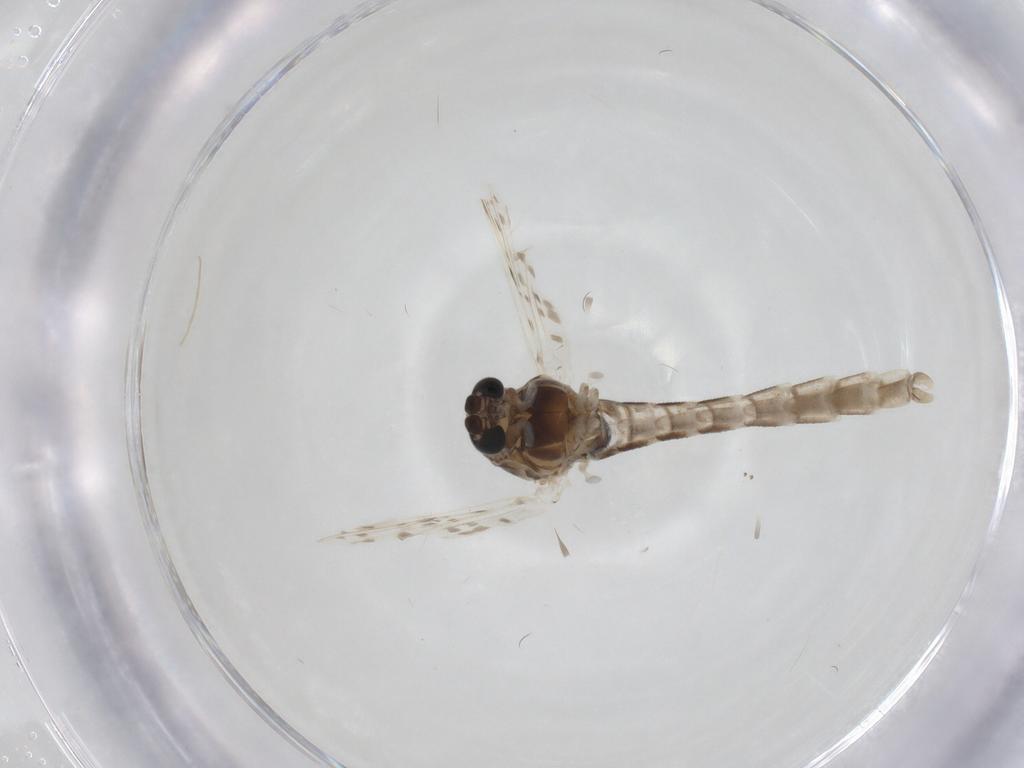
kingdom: Animalia
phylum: Arthropoda
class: Insecta
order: Diptera
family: Chironomidae
